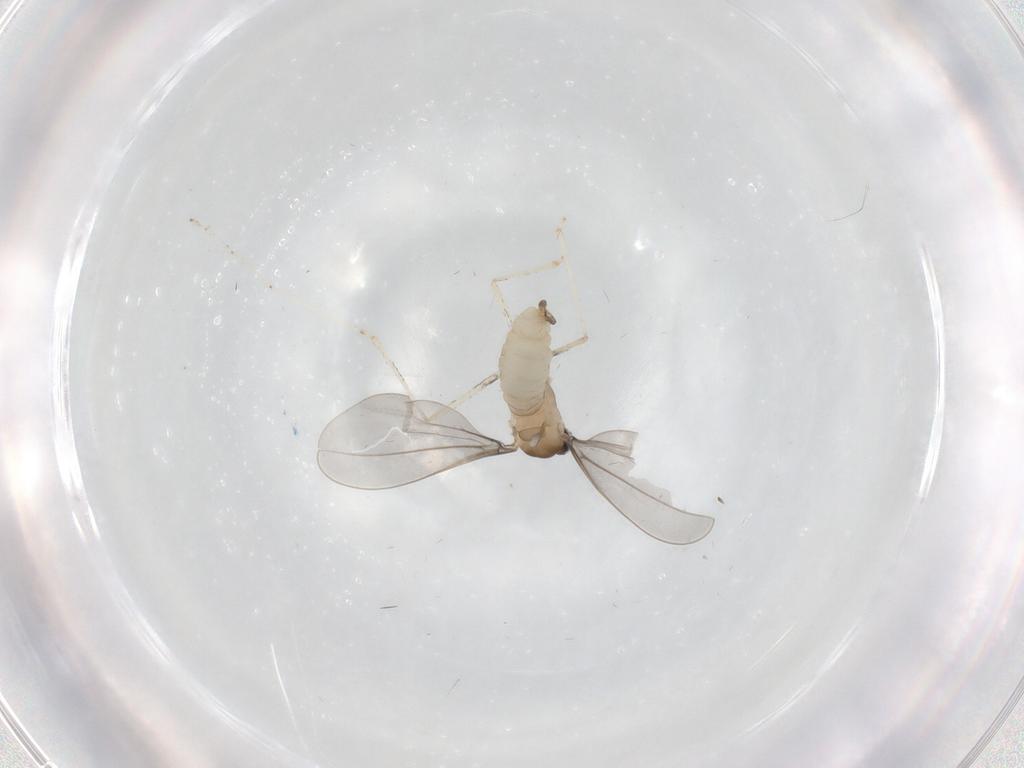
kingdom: Animalia
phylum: Arthropoda
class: Insecta
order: Diptera
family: Cecidomyiidae
